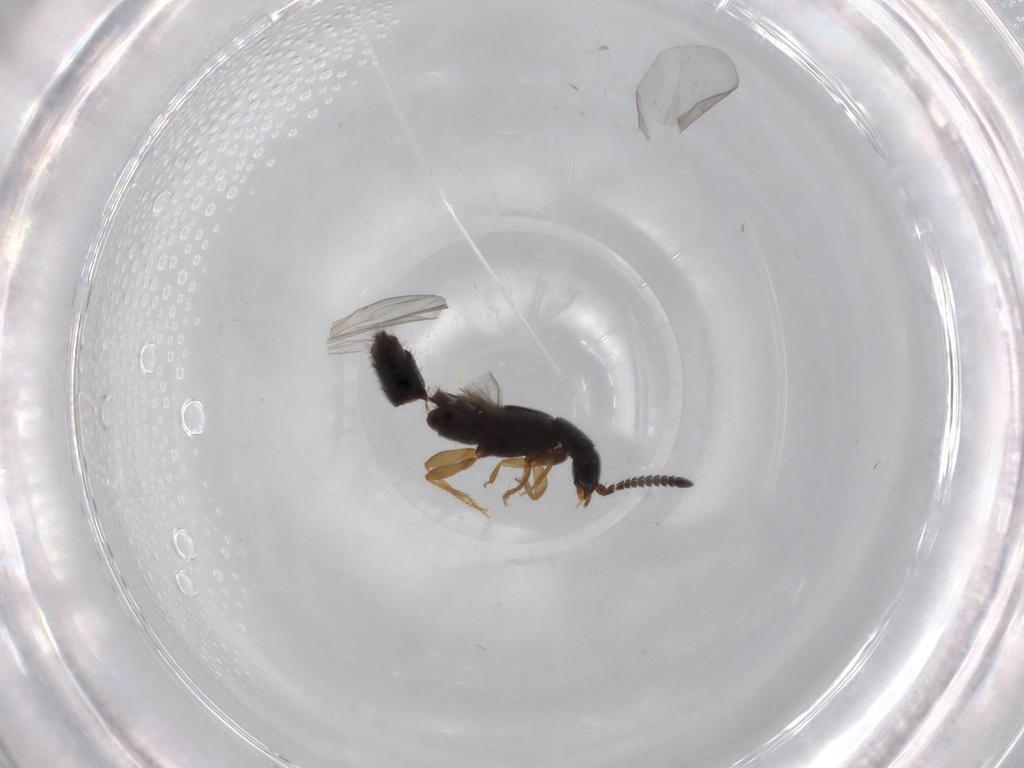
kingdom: Animalia
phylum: Arthropoda
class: Insecta
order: Coleoptera
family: Staphylinidae
